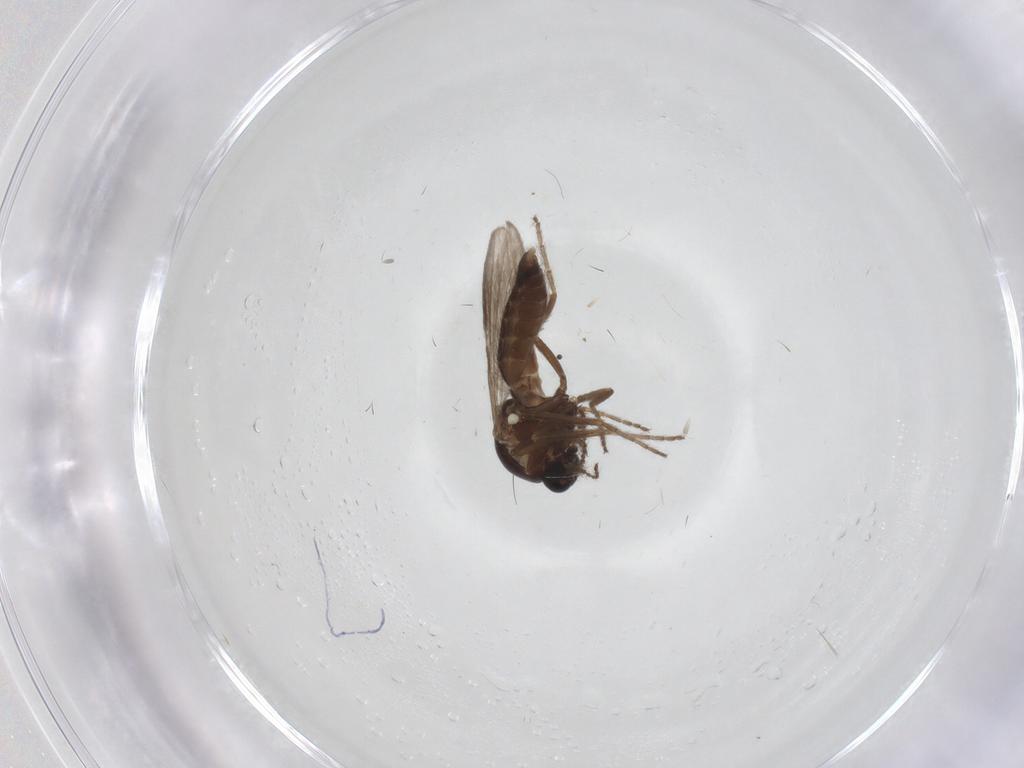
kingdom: Animalia
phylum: Arthropoda
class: Insecta
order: Diptera
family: Ceratopogonidae
